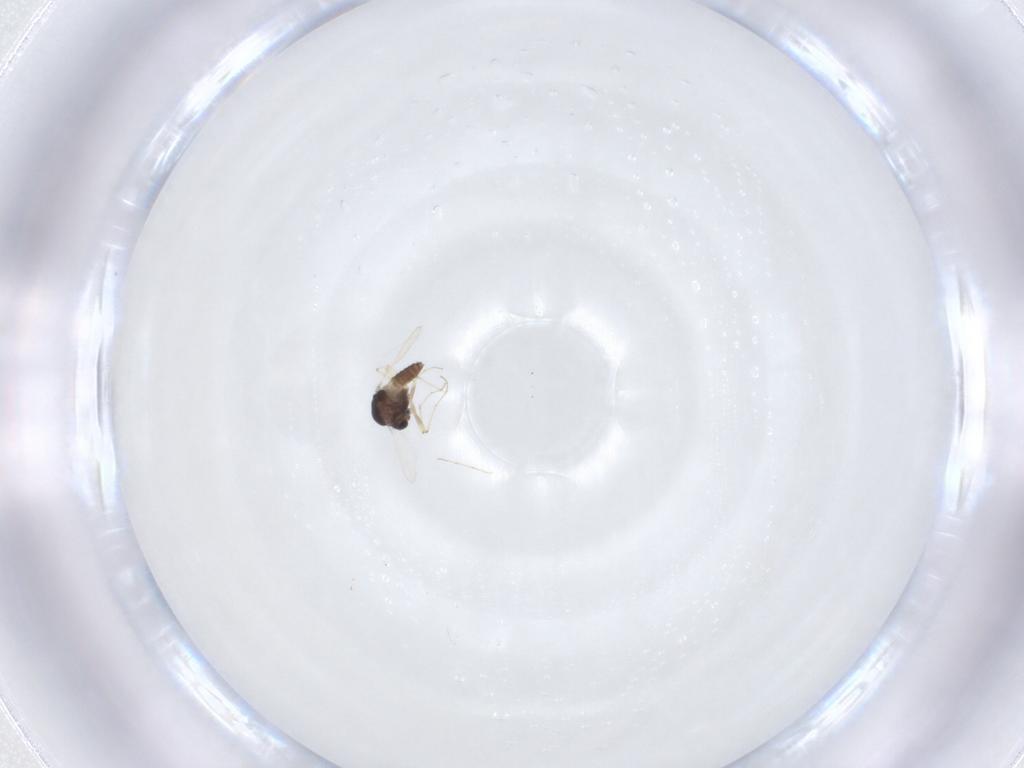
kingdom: Animalia
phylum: Arthropoda
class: Insecta
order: Diptera
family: Chironomidae
